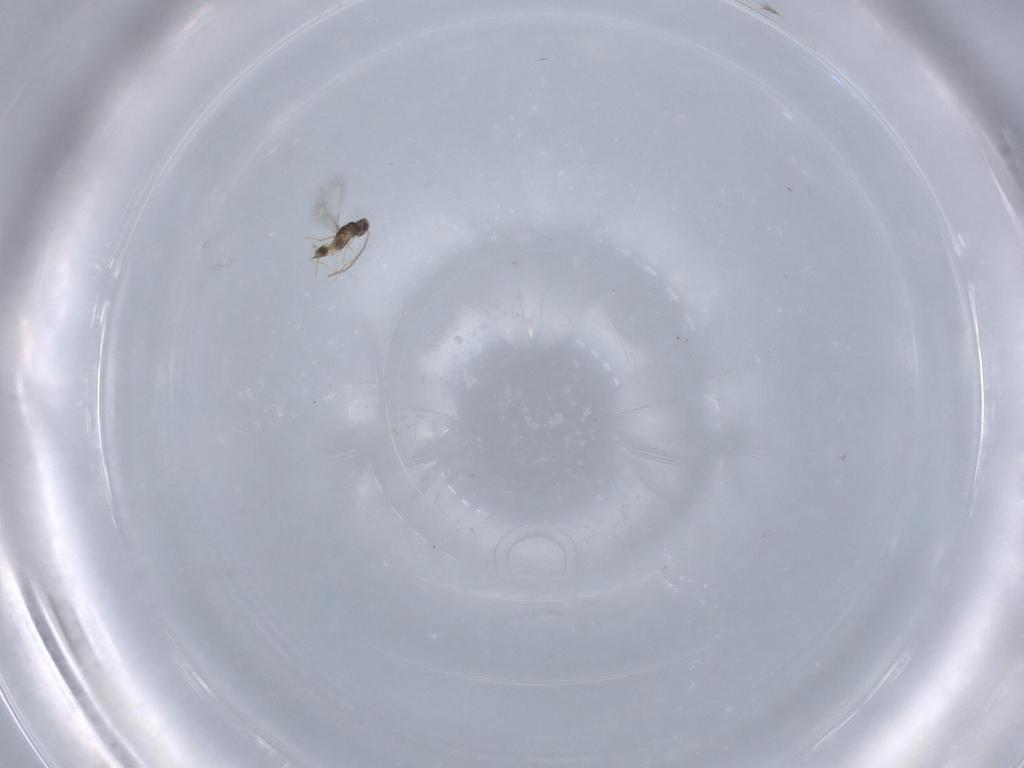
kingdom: Animalia
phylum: Arthropoda
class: Insecta
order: Hymenoptera
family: Mymaridae
